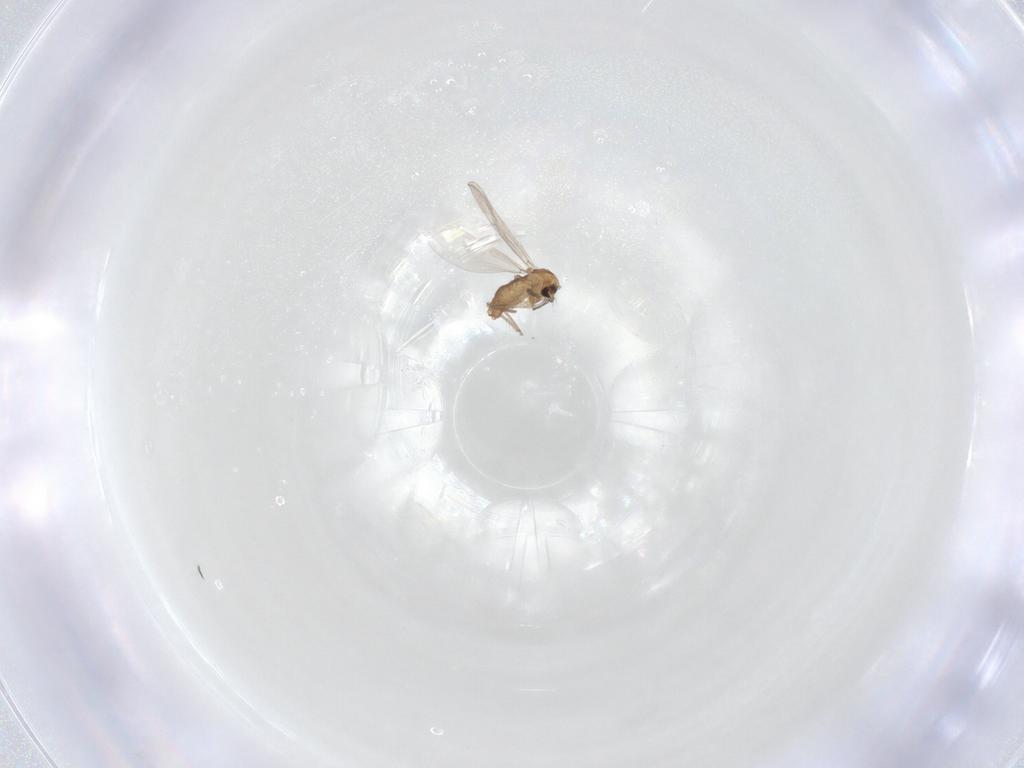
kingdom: Animalia
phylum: Arthropoda
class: Insecta
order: Diptera
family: Chironomidae
